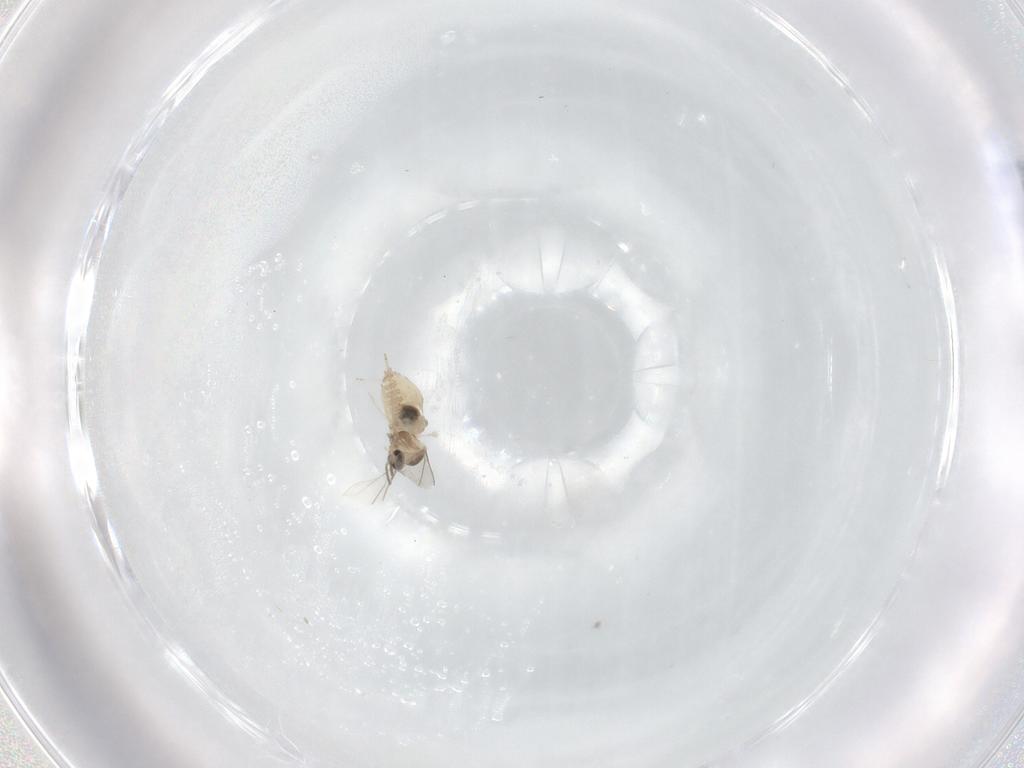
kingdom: Animalia
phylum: Arthropoda
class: Insecta
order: Diptera
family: Cecidomyiidae
